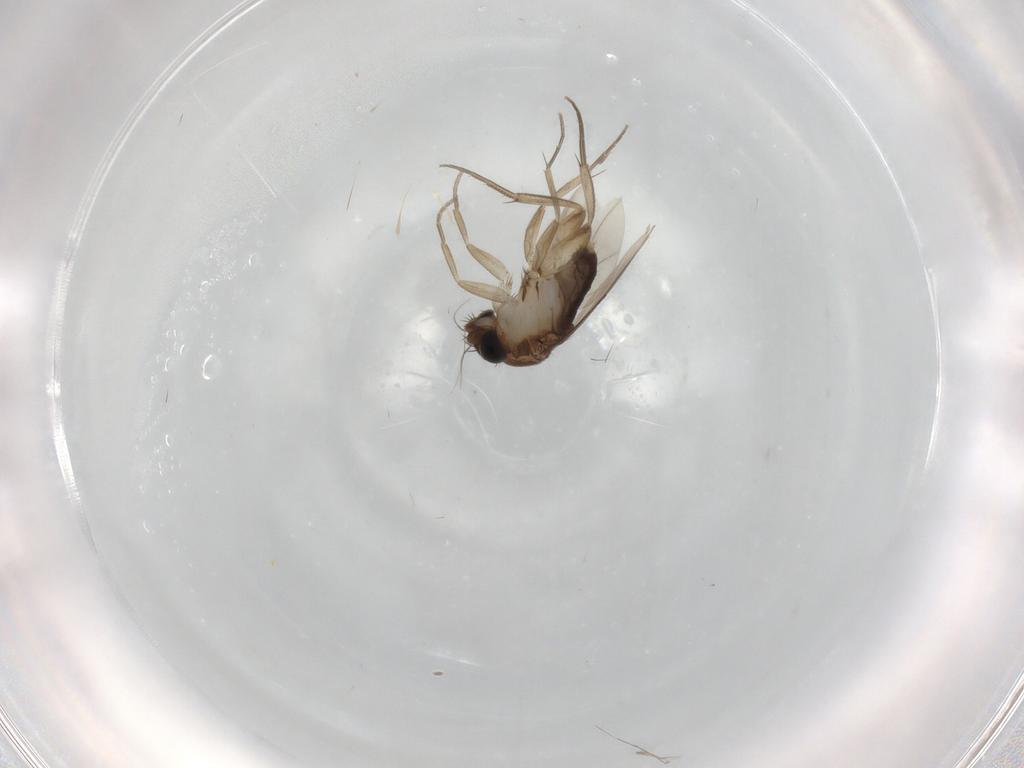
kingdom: Animalia
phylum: Arthropoda
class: Insecta
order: Diptera
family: Phoridae
